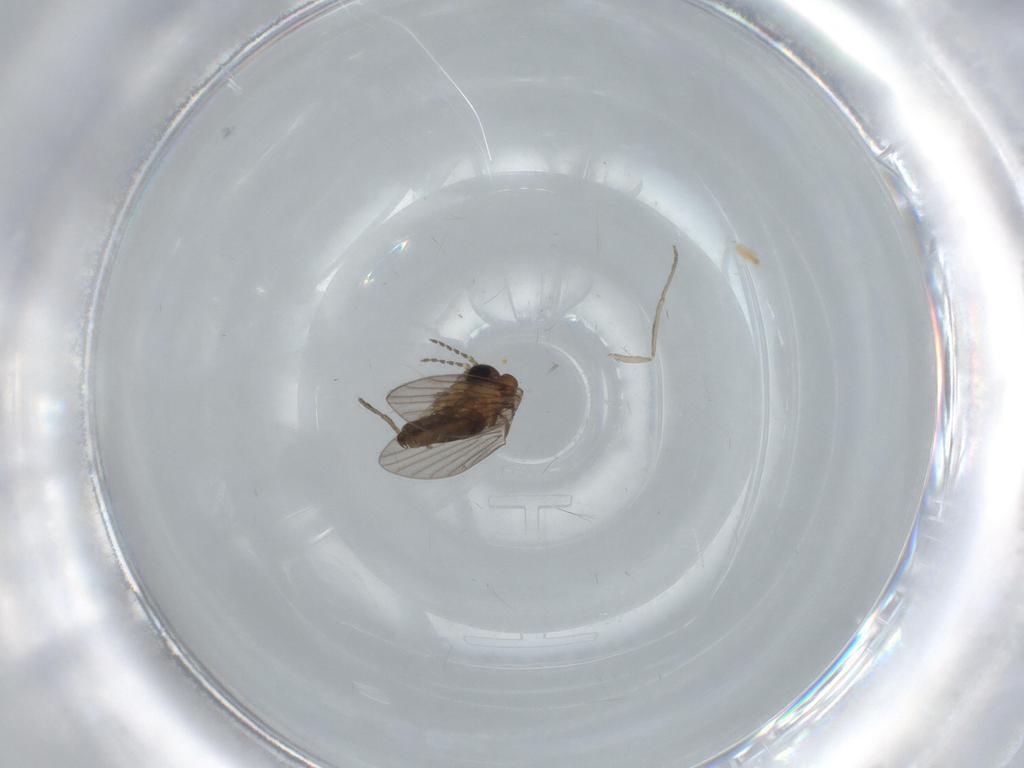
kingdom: Animalia
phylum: Arthropoda
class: Insecta
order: Diptera
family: Psychodidae
